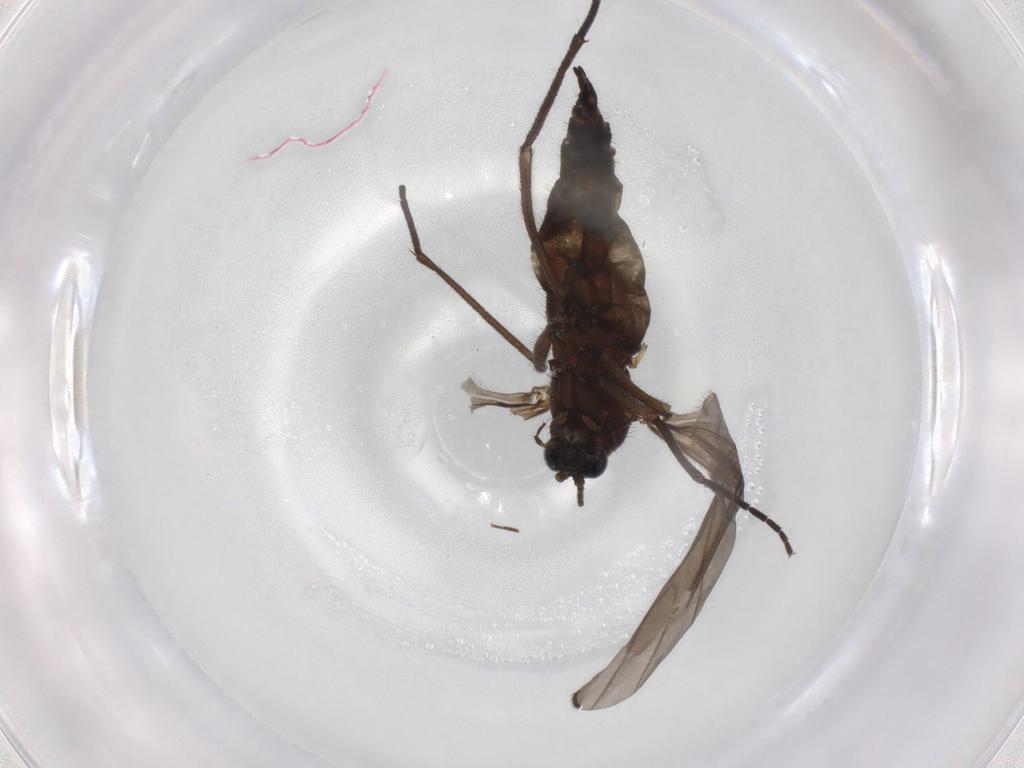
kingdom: Animalia
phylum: Arthropoda
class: Insecta
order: Diptera
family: Sciaridae
